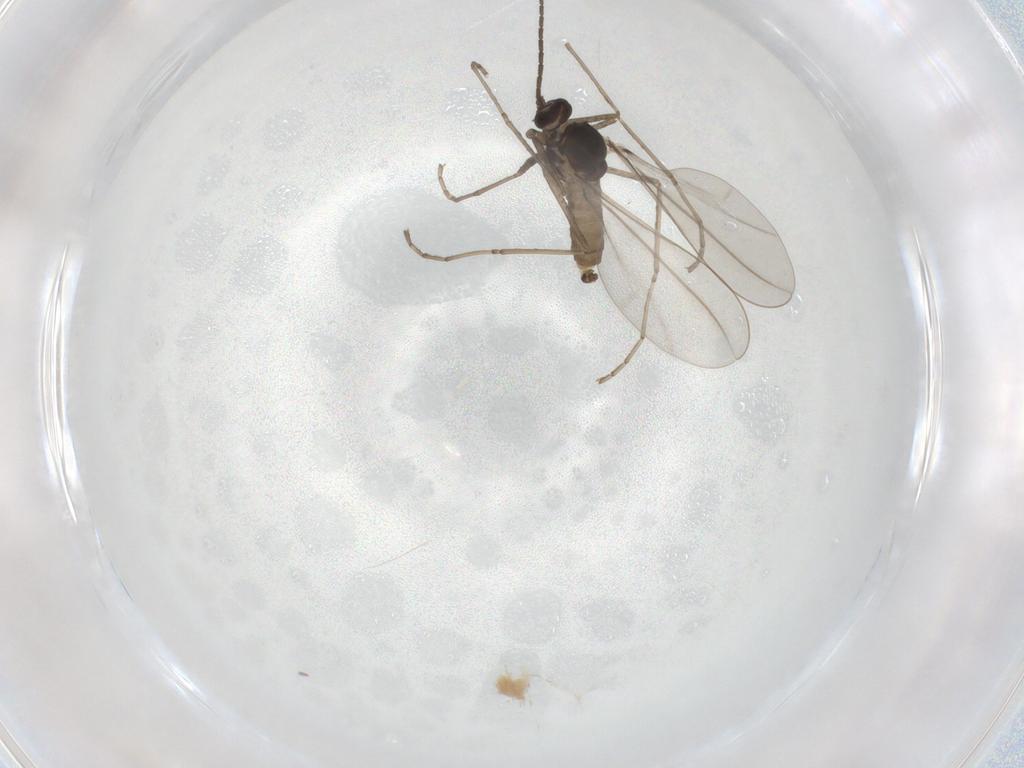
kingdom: Animalia
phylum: Arthropoda
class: Insecta
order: Diptera
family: Cecidomyiidae
